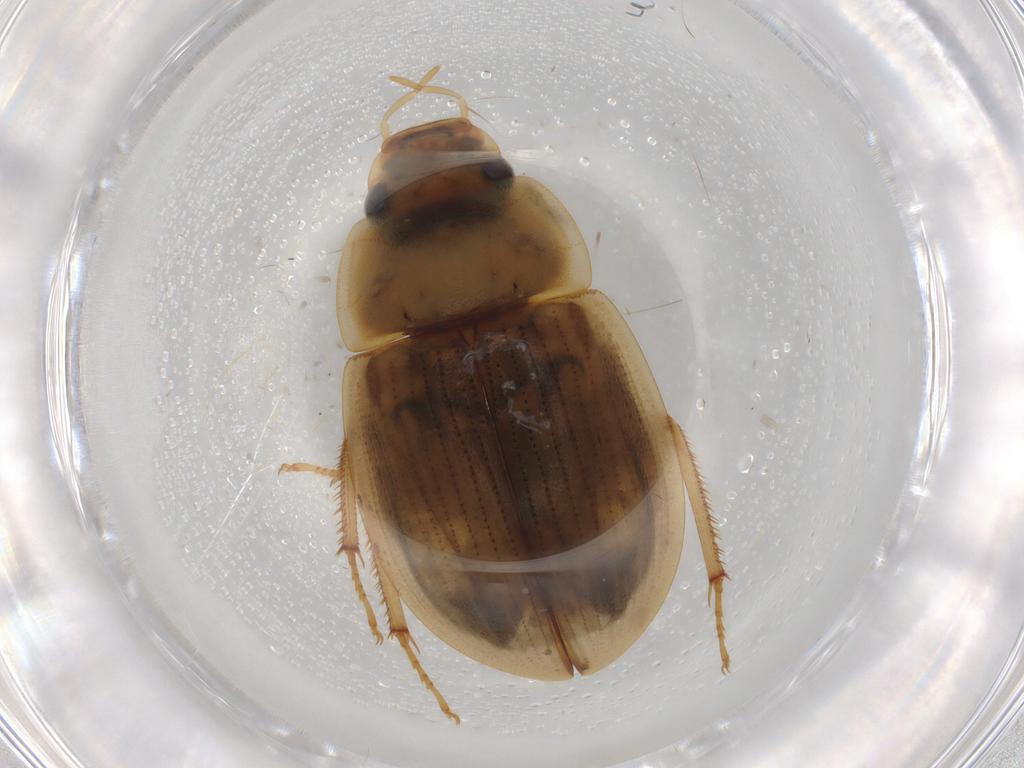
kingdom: Animalia
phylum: Arthropoda
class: Insecta
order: Coleoptera
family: Hydrophilidae
